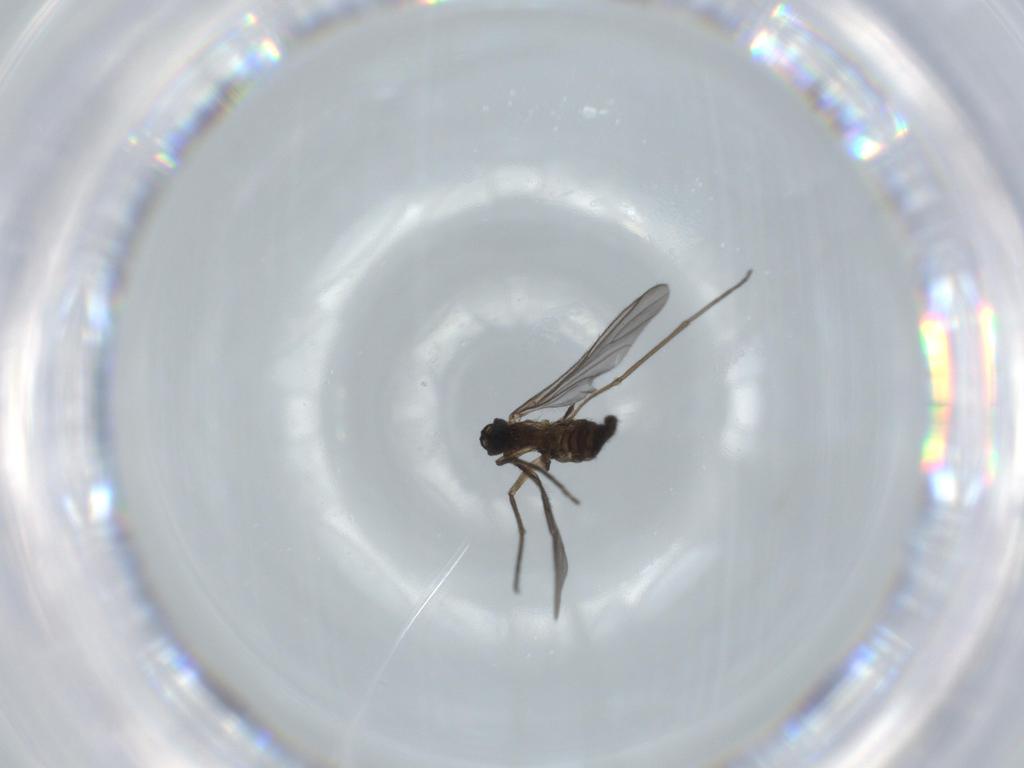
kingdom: Animalia
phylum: Arthropoda
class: Insecta
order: Diptera
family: Sciaridae
